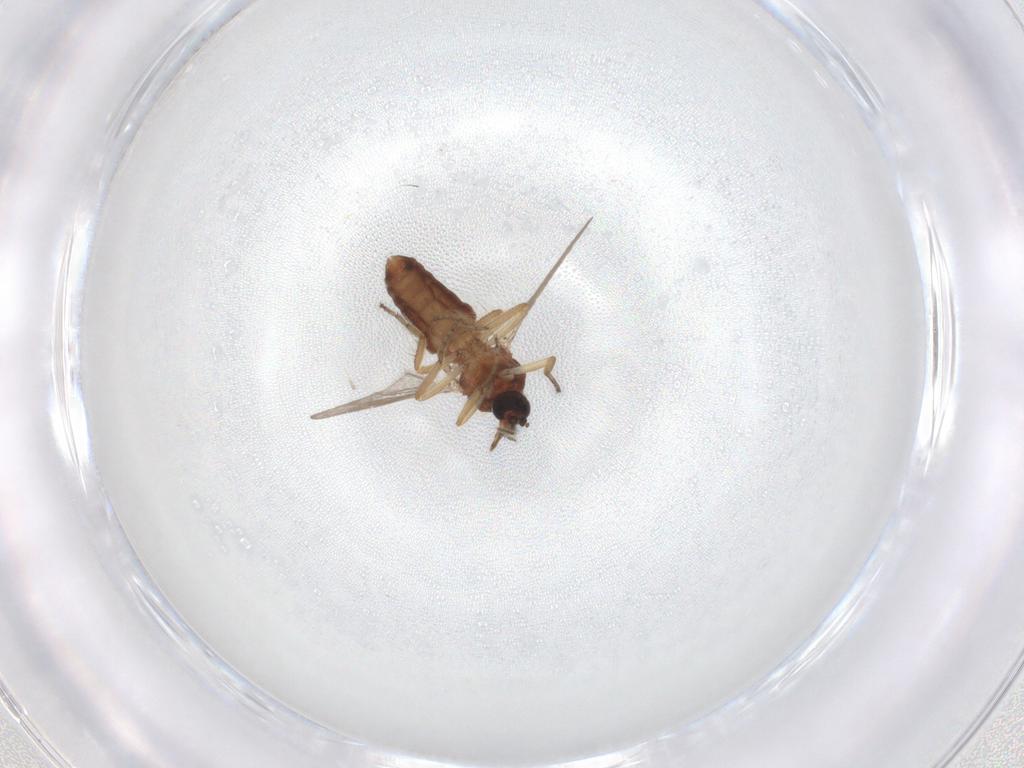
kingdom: Animalia
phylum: Arthropoda
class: Insecta
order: Diptera
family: Ceratopogonidae
